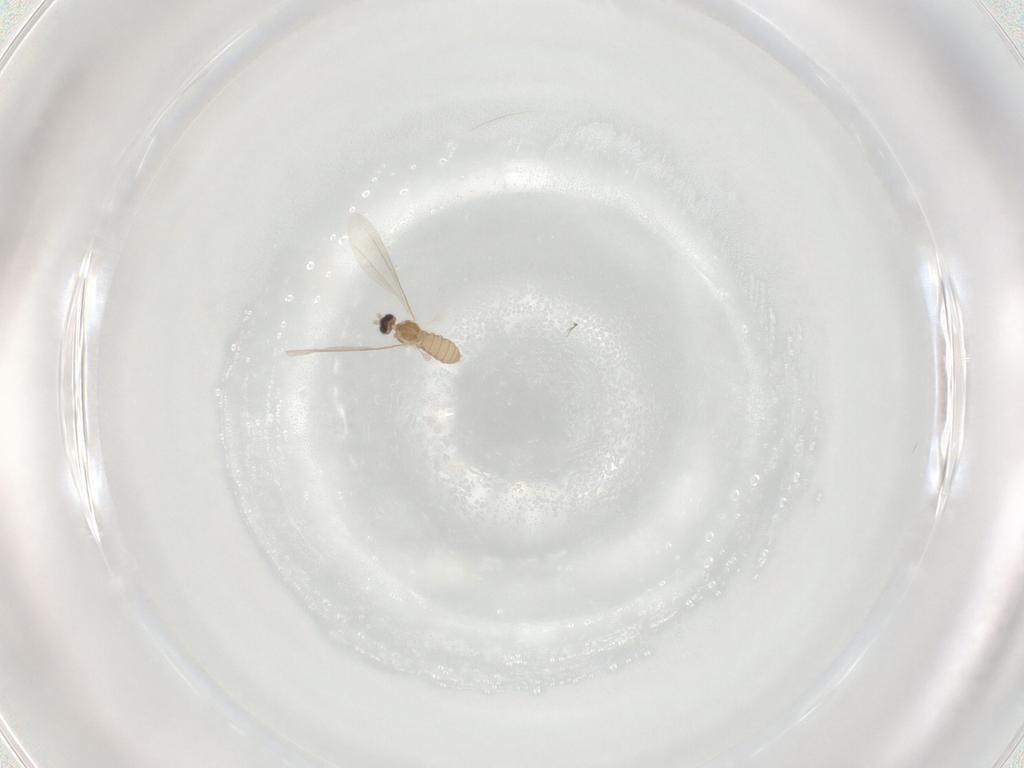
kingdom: Animalia
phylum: Arthropoda
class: Insecta
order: Diptera
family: Cecidomyiidae
